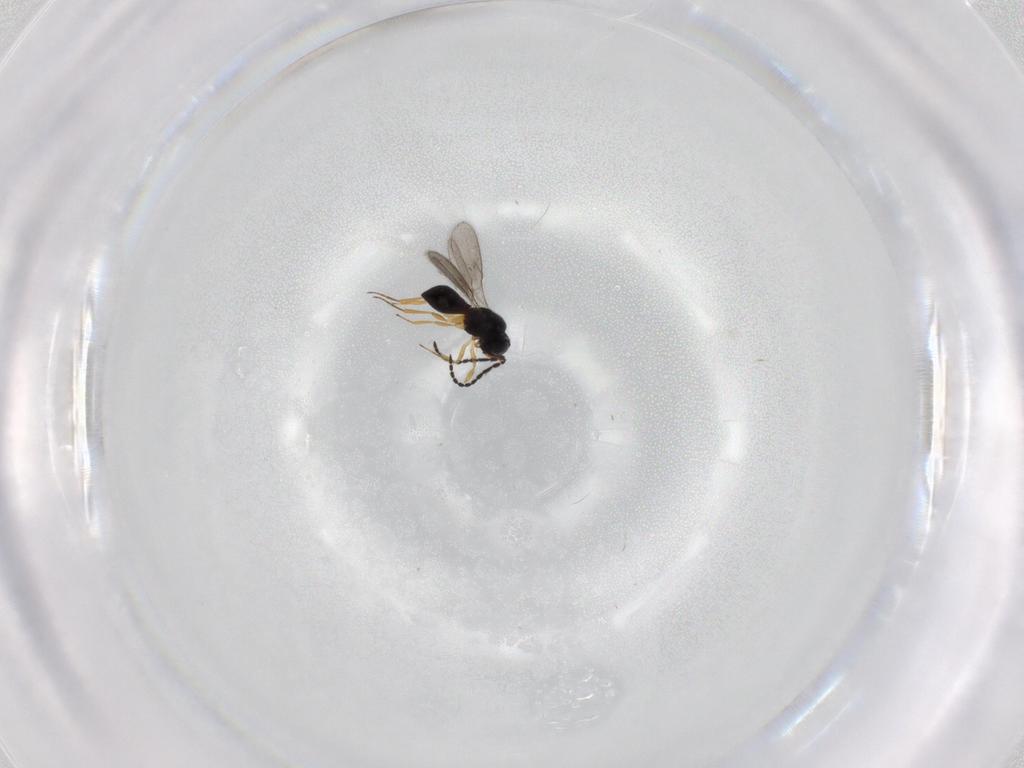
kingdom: Animalia
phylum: Arthropoda
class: Insecta
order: Hymenoptera
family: Scelionidae
